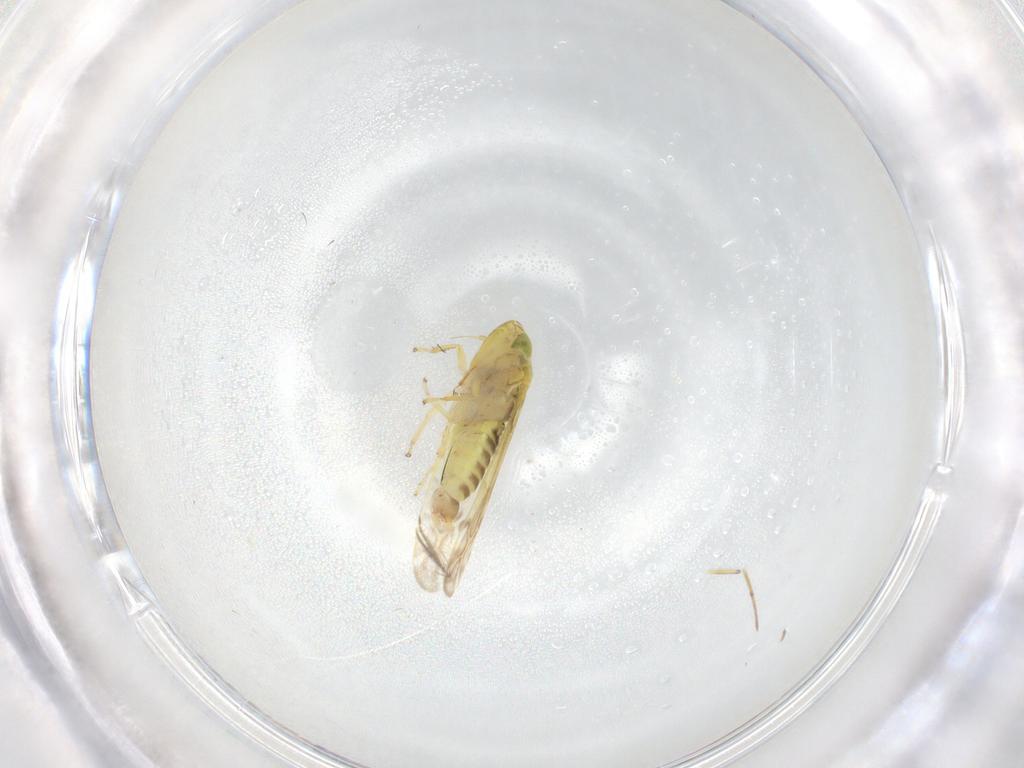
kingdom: Animalia
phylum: Arthropoda
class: Insecta
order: Hemiptera
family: Cicadellidae
